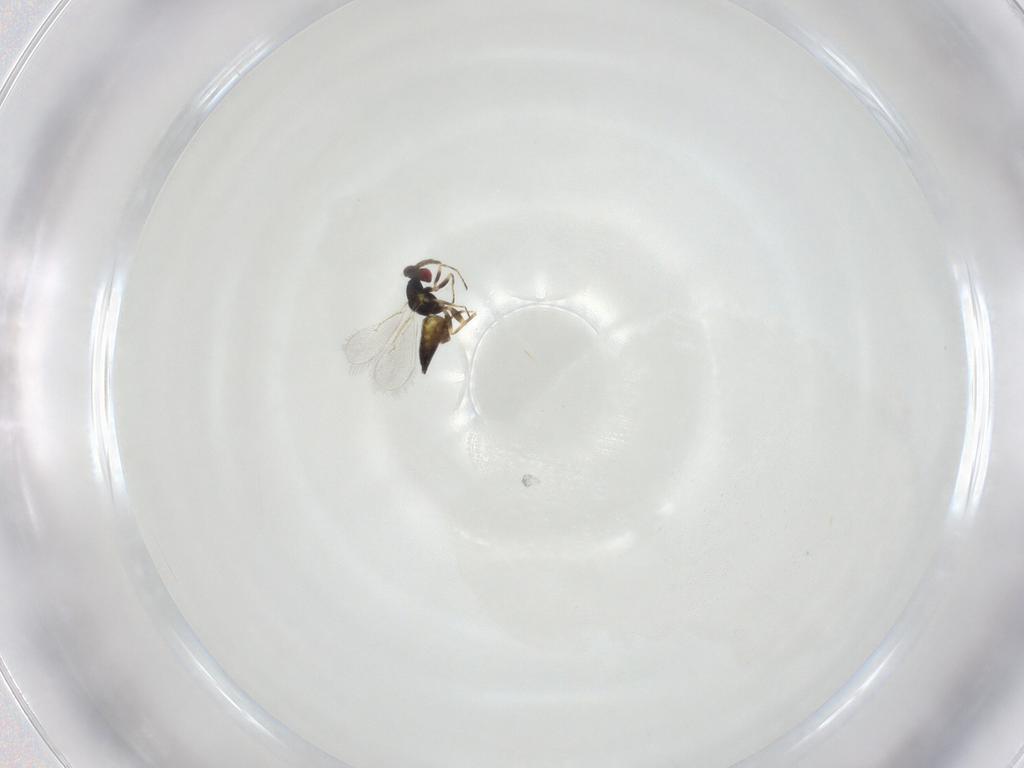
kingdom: Animalia
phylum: Arthropoda
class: Insecta
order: Hymenoptera
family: Eulophidae
